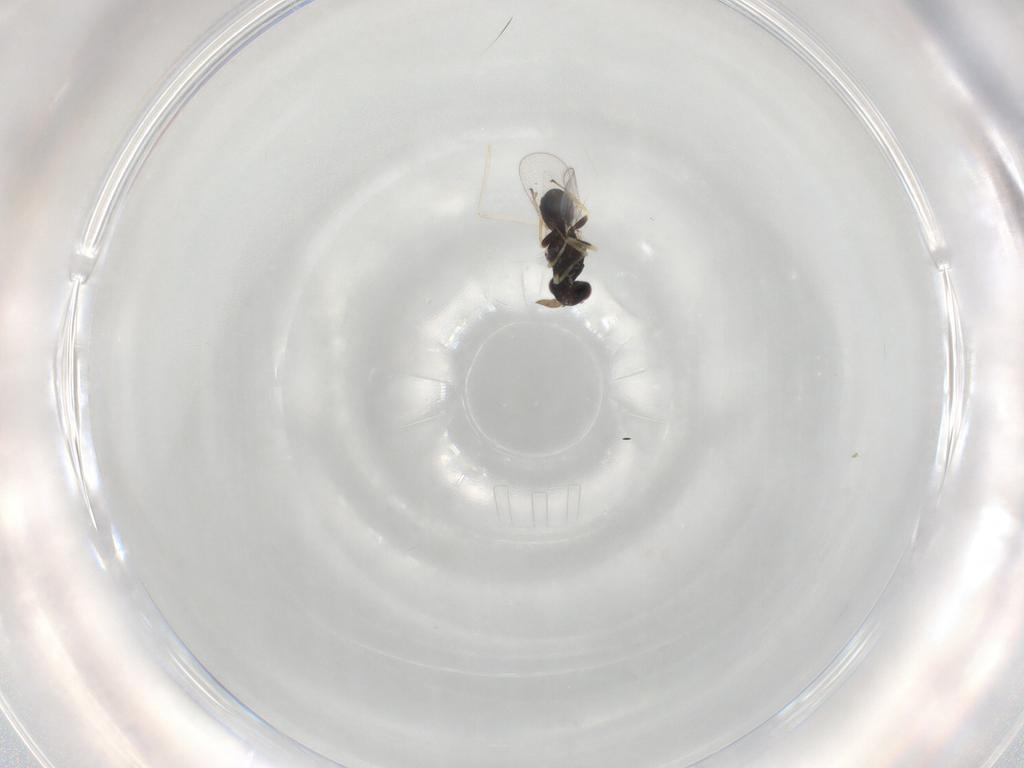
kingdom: Animalia
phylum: Arthropoda
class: Insecta
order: Hymenoptera
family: Eulophidae
